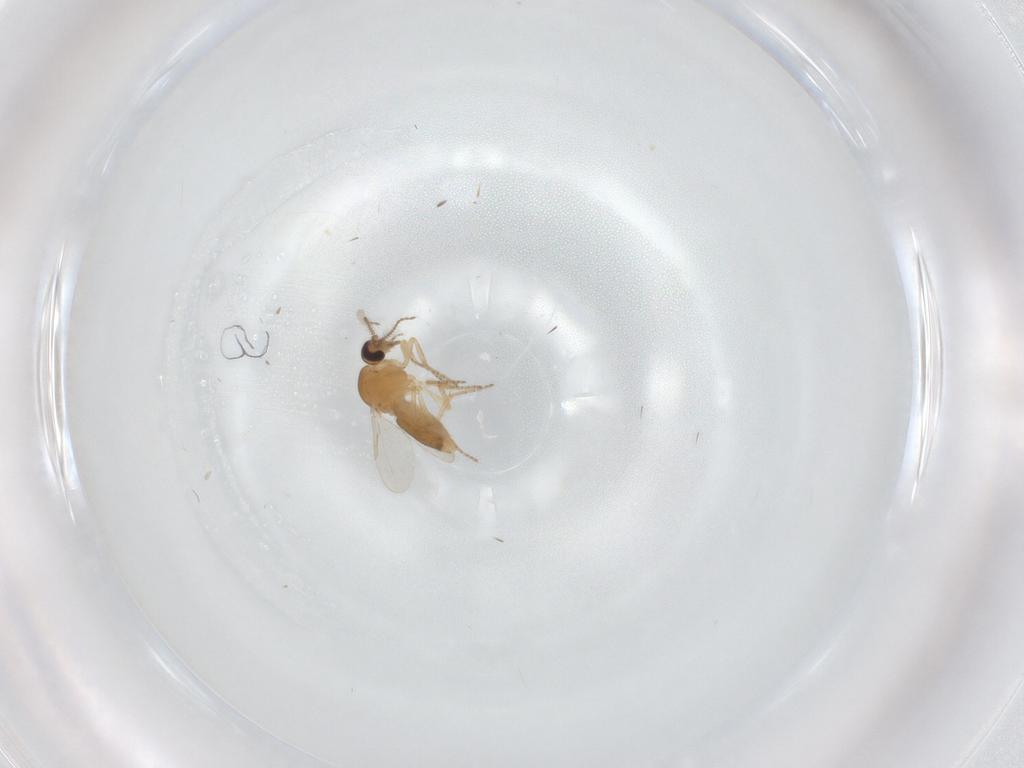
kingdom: Animalia
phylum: Arthropoda
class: Insecta
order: Diptera
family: Ceratopogonidae
